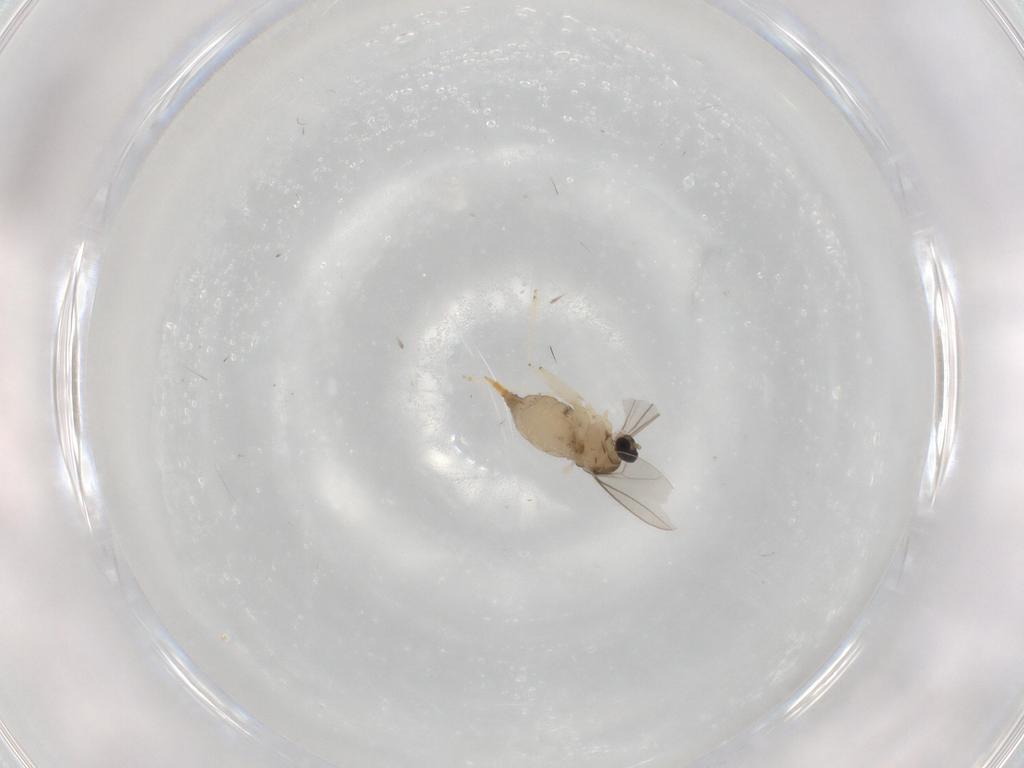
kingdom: Animalia
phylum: Arthropoda
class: Insecta
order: Diptera
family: Cecidomyiidae
